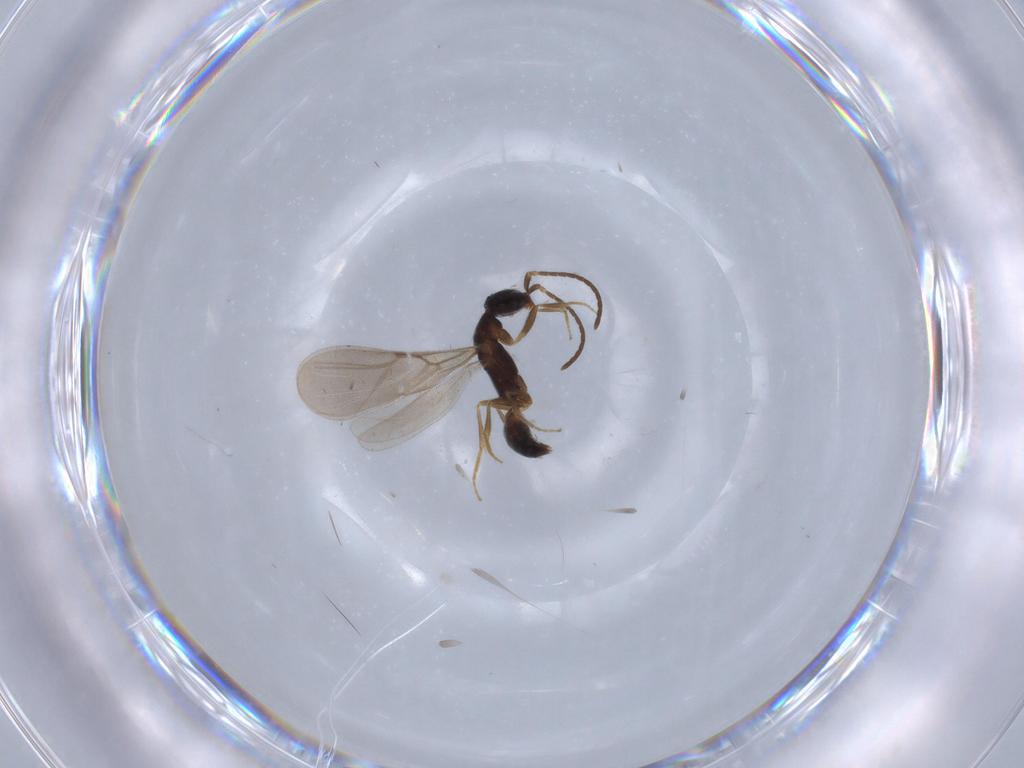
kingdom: Animalia
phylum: Arthropoda
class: Insecta
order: Hymenoptera
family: Bethylidae
